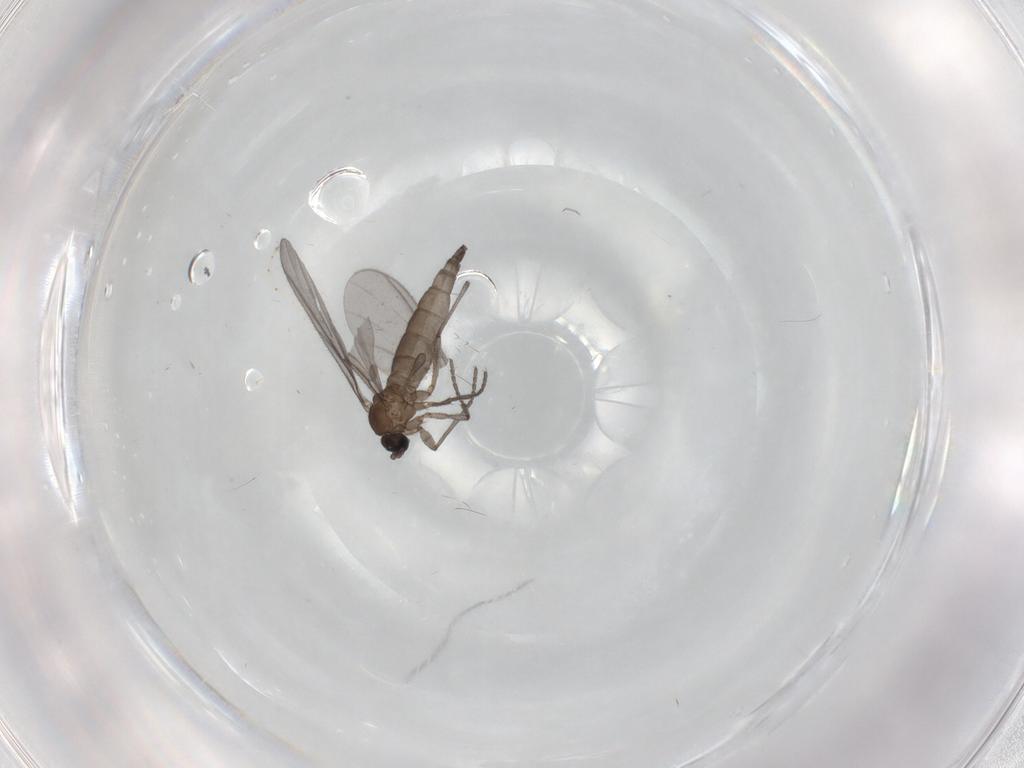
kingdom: Animalia
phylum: Arthropoda
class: Insecta
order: Diptera
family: Sciaridae
